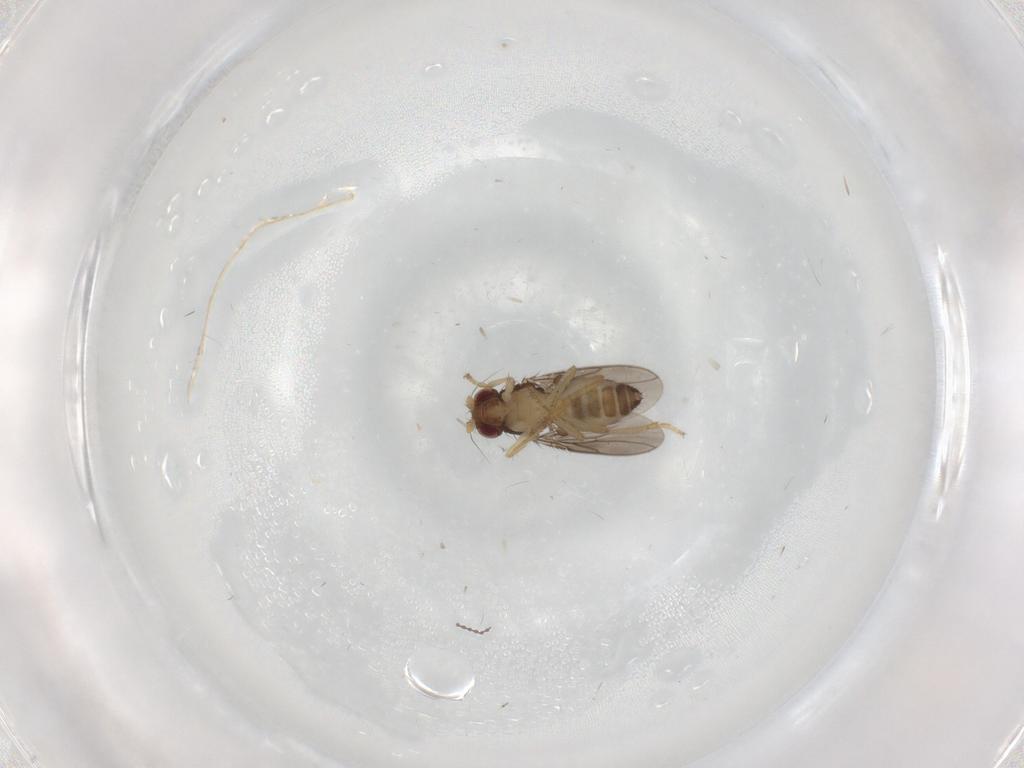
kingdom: Animalia
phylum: Arthropoda
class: Insecta
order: Diptera
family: Sphaeroceridae
